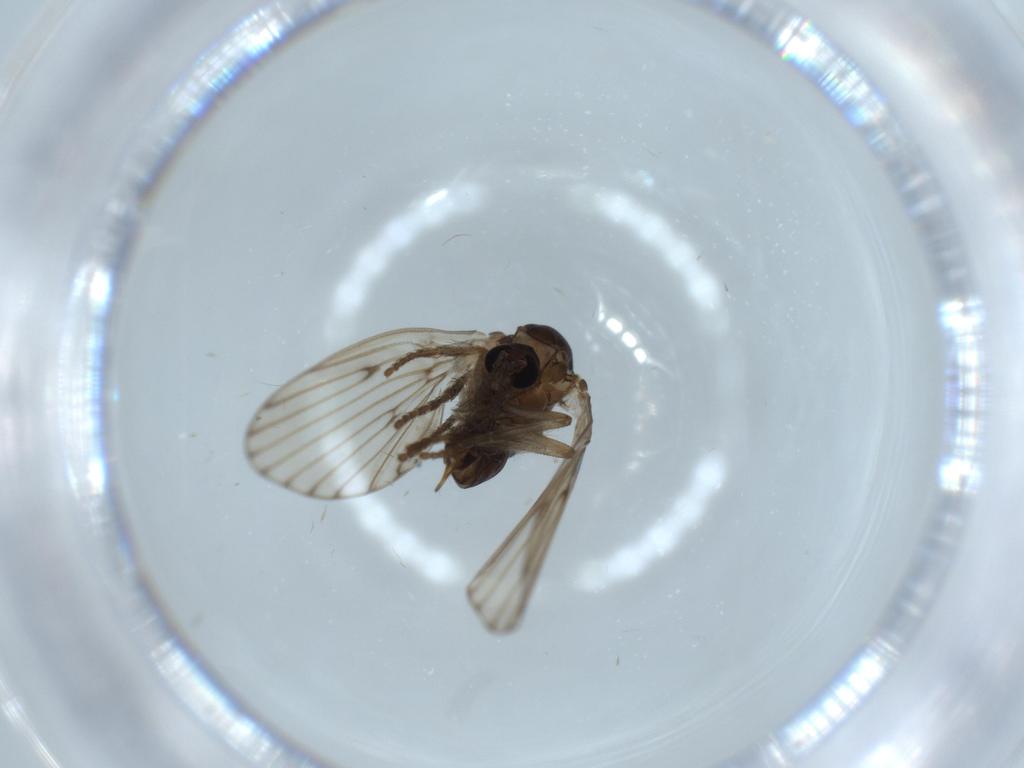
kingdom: Animalia
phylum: Arthropoda
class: Insecta
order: Diptera
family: Psychodidae
